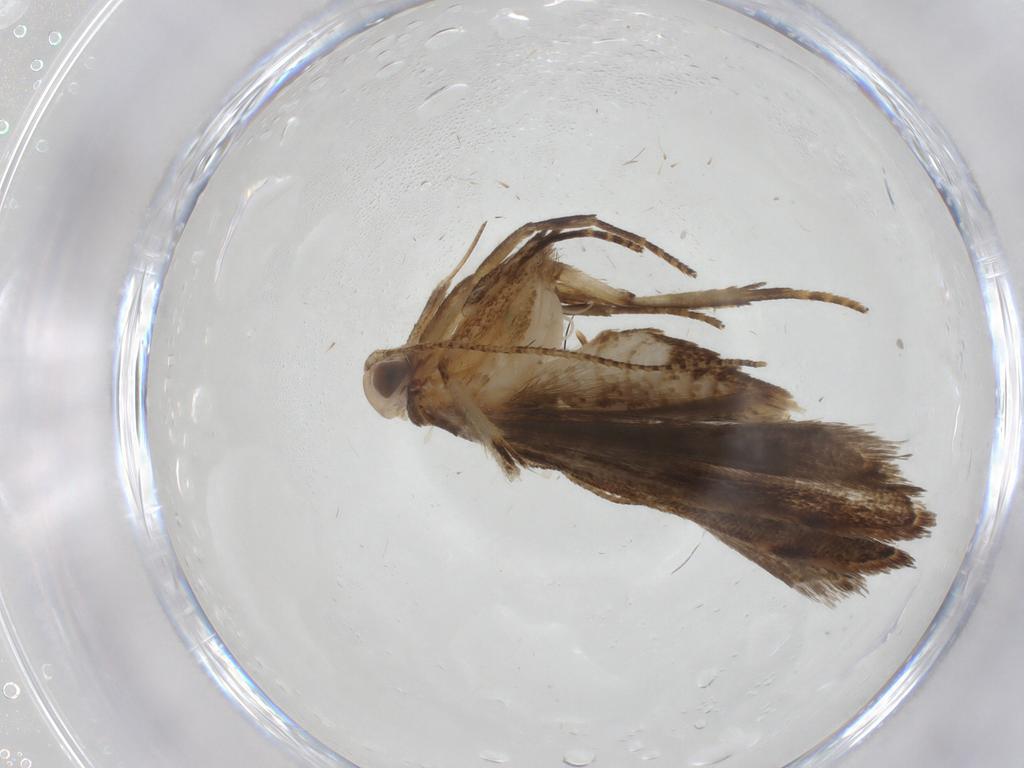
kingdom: Animalia
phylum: Arthropoda
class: Insecta
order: Lepidoptera
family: Gelechiidae
